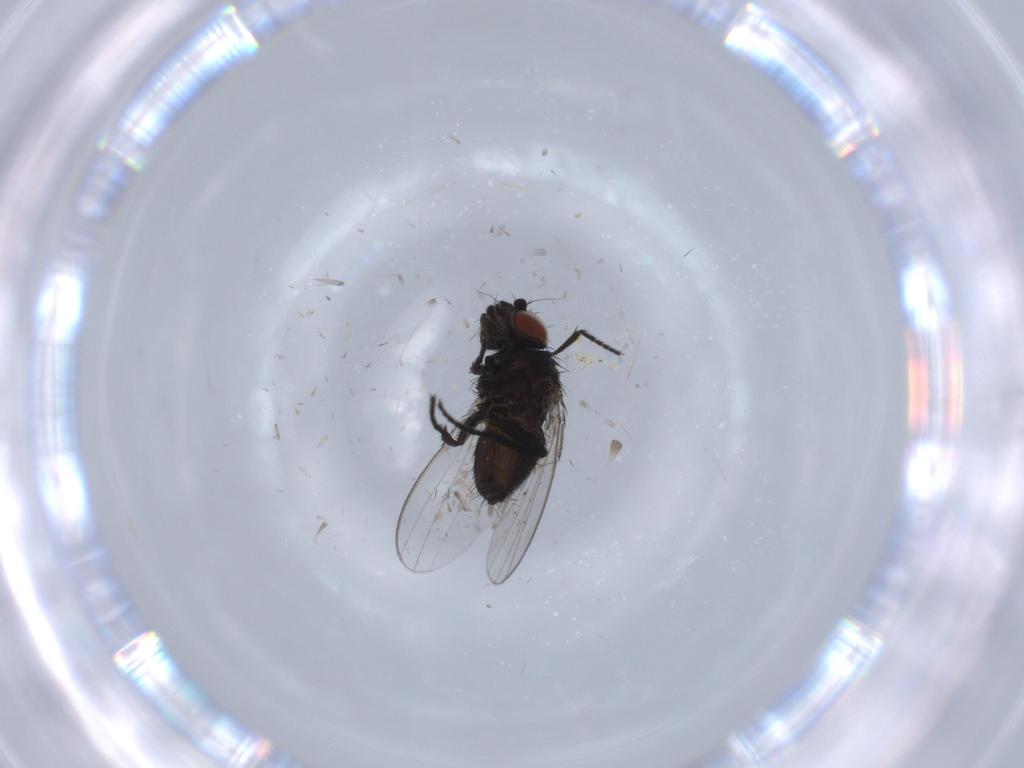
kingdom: Animalia
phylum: Arthropoda
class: Insecta
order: Diptera
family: Milichiidae
